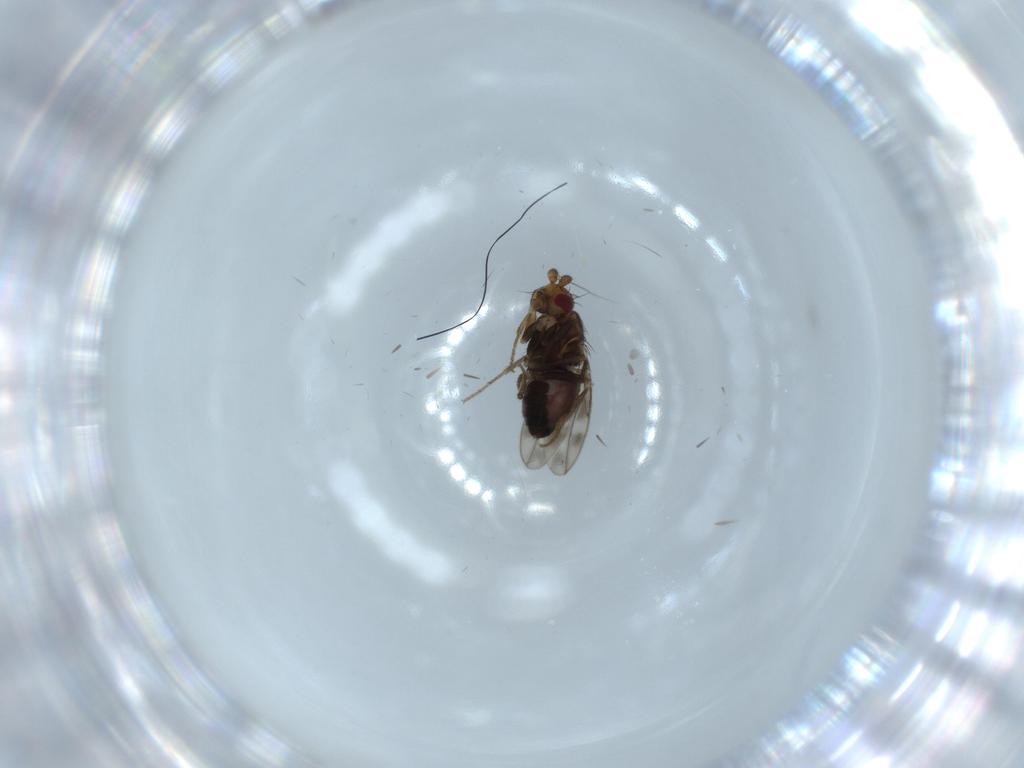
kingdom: Animalia
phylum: Arthropoda
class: Insecta
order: Diptera
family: Sphaeroceridae
